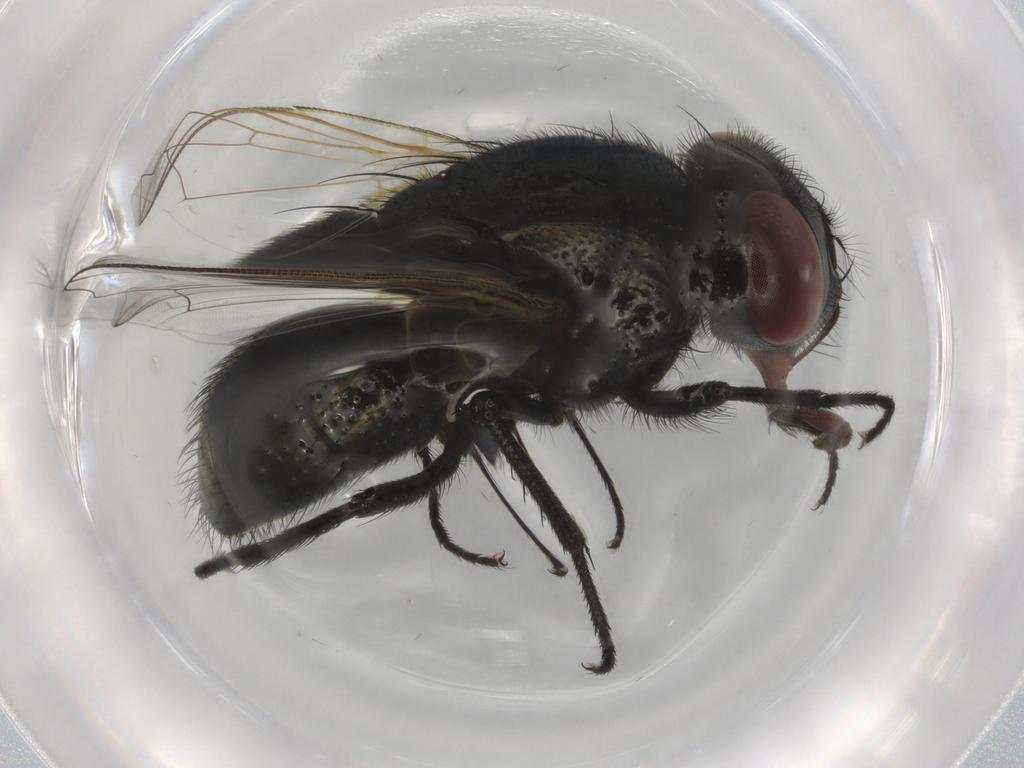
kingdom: Animalia
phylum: Arthropoda
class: Insecta
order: Diptera
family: Muscidae
